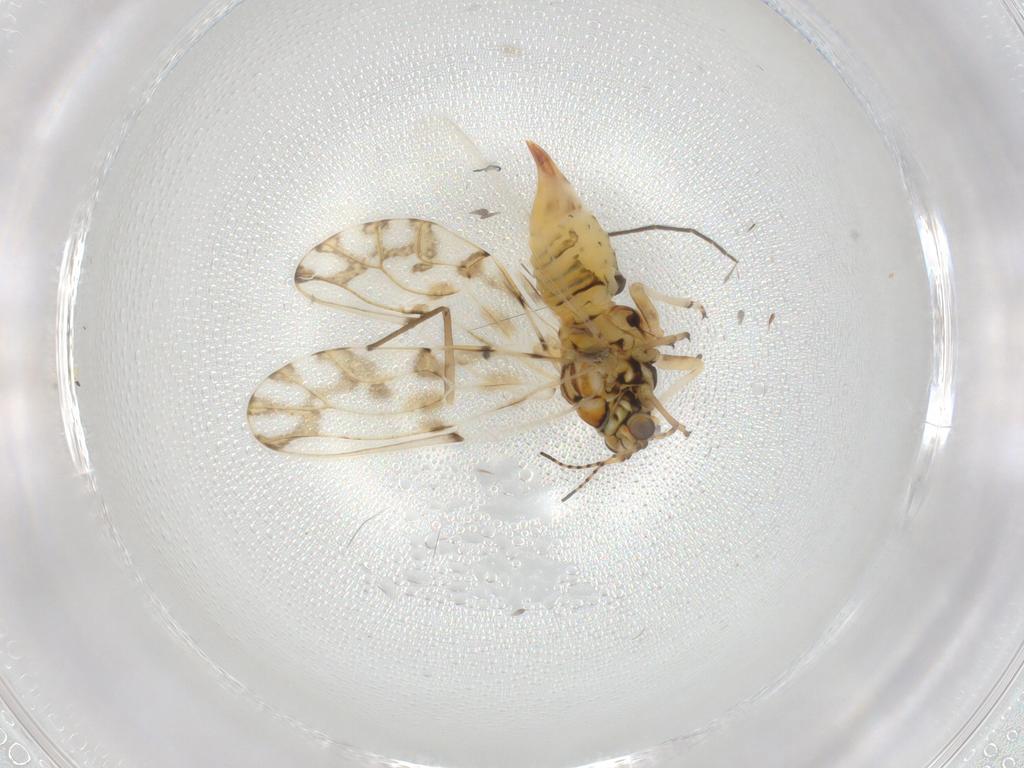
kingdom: Animalia
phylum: Arthropoda
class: Insecta
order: Hemiptera
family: Psylloidea_incertae_sedis
